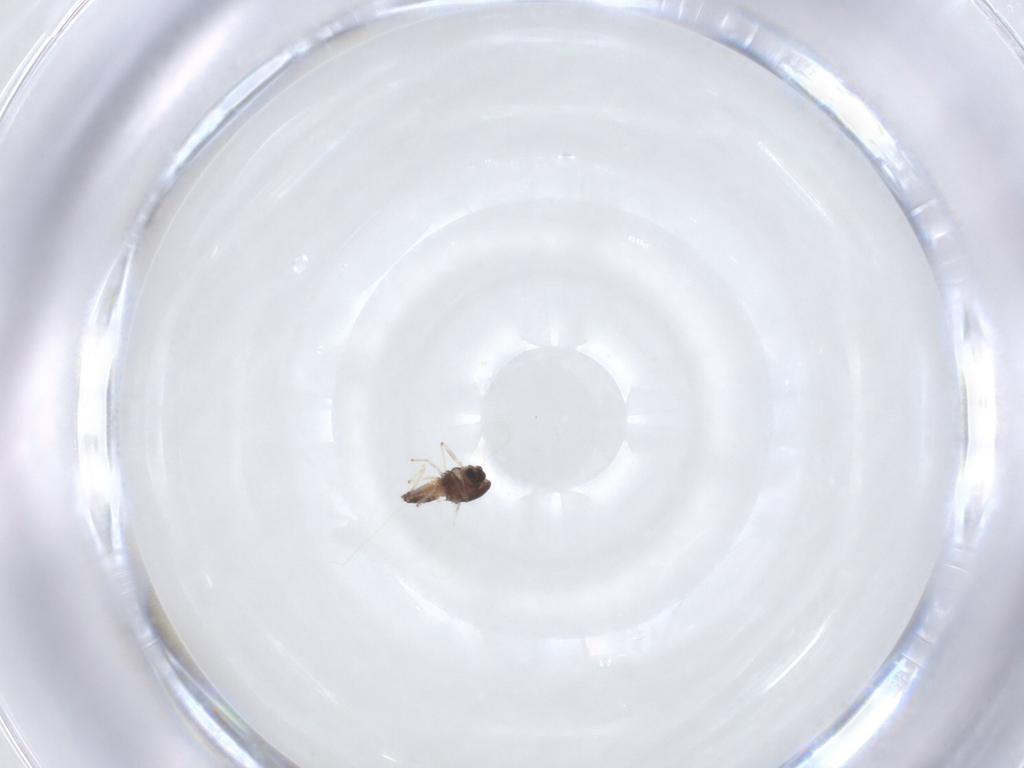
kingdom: Animalia
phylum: Arthropoda
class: Insecta
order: Diptera
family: Chironomidae
